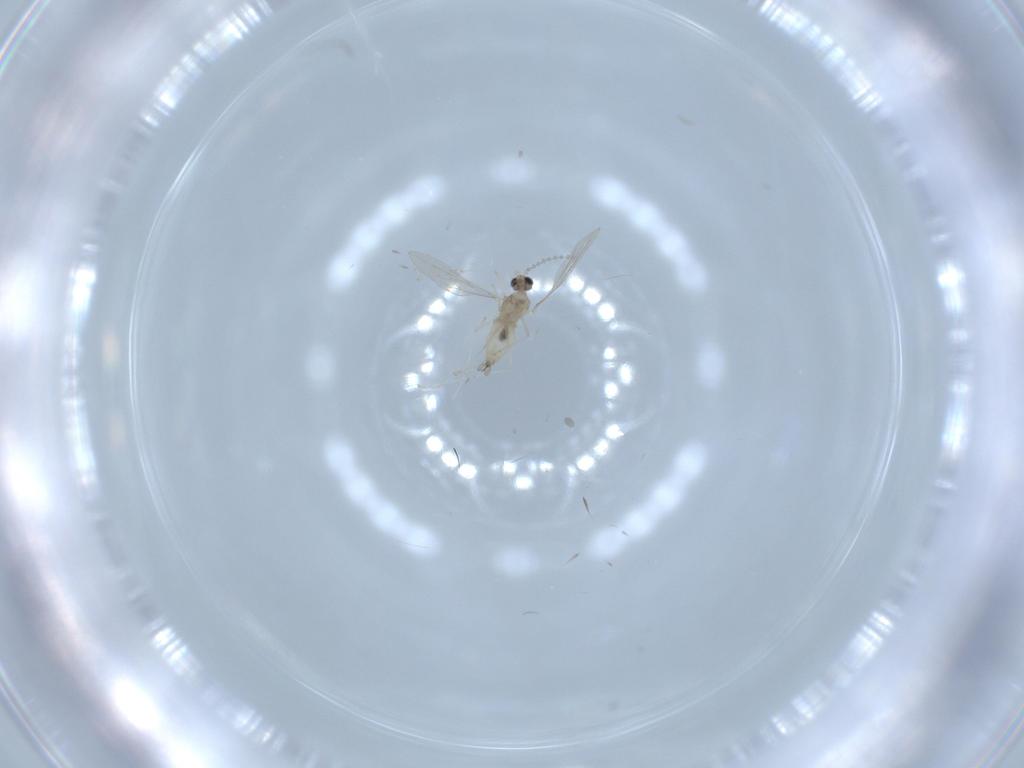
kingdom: Animalia
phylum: Arthropoda
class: Insecta
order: Diptera
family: Cecidomyiidae
